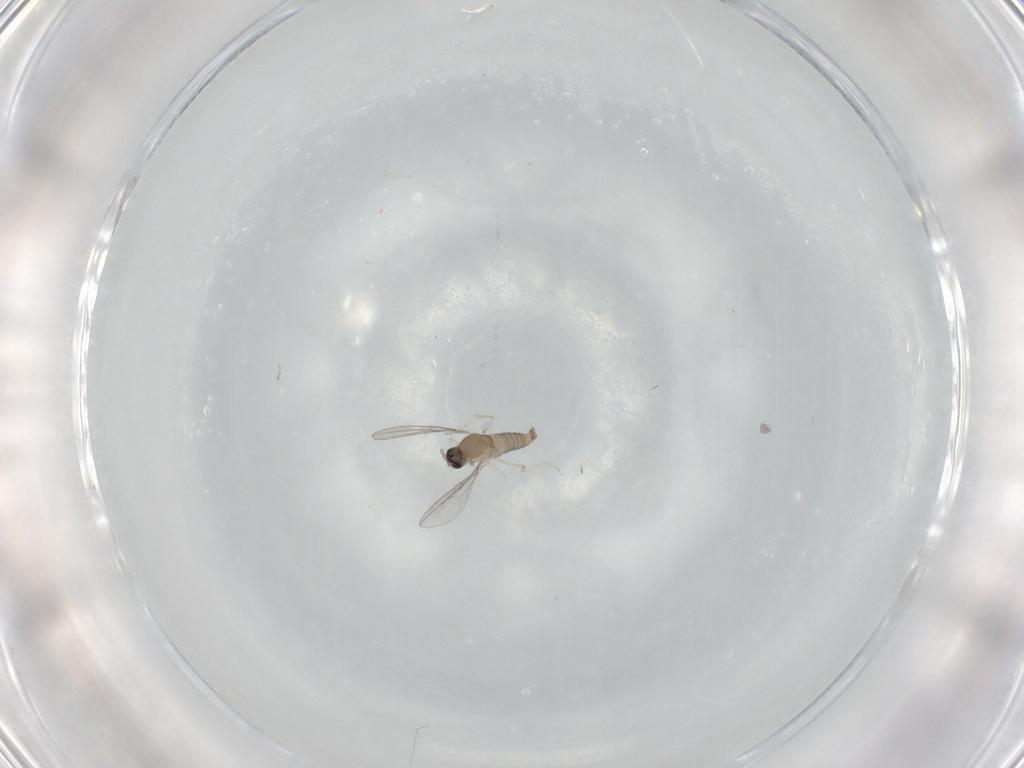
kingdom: Animalia
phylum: Arthropoda
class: Insecta
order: Diptera
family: Cecidomyiidae
